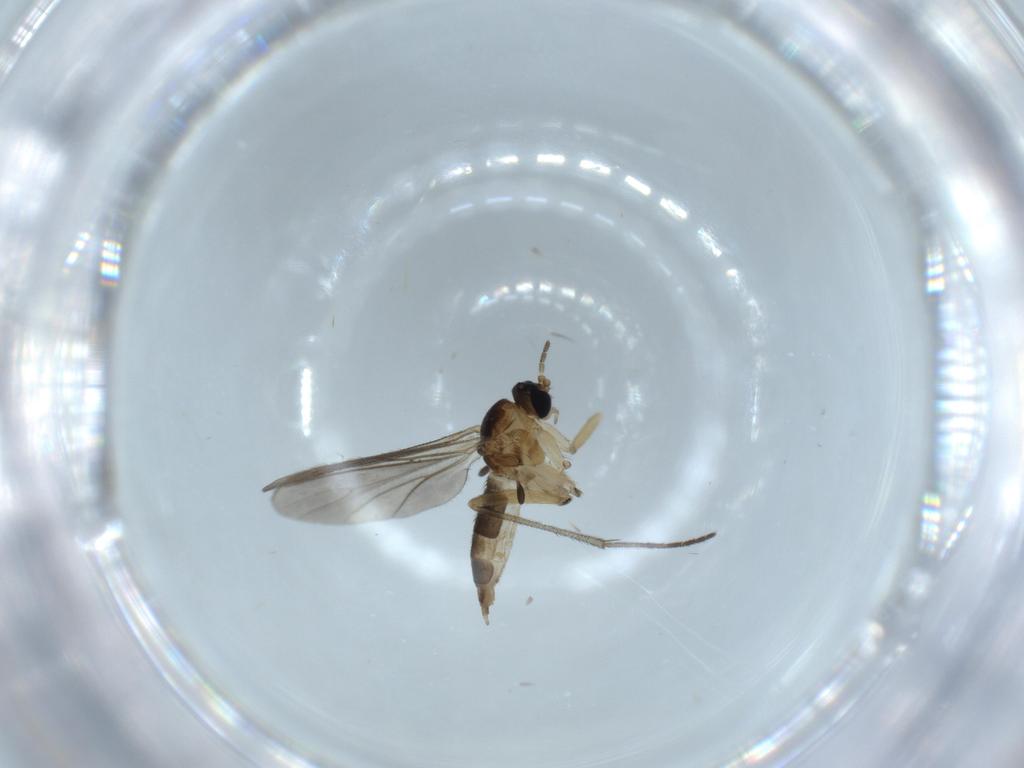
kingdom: Animalia
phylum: Arthropoda
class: Insecta
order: Diptera
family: Sciaridae
